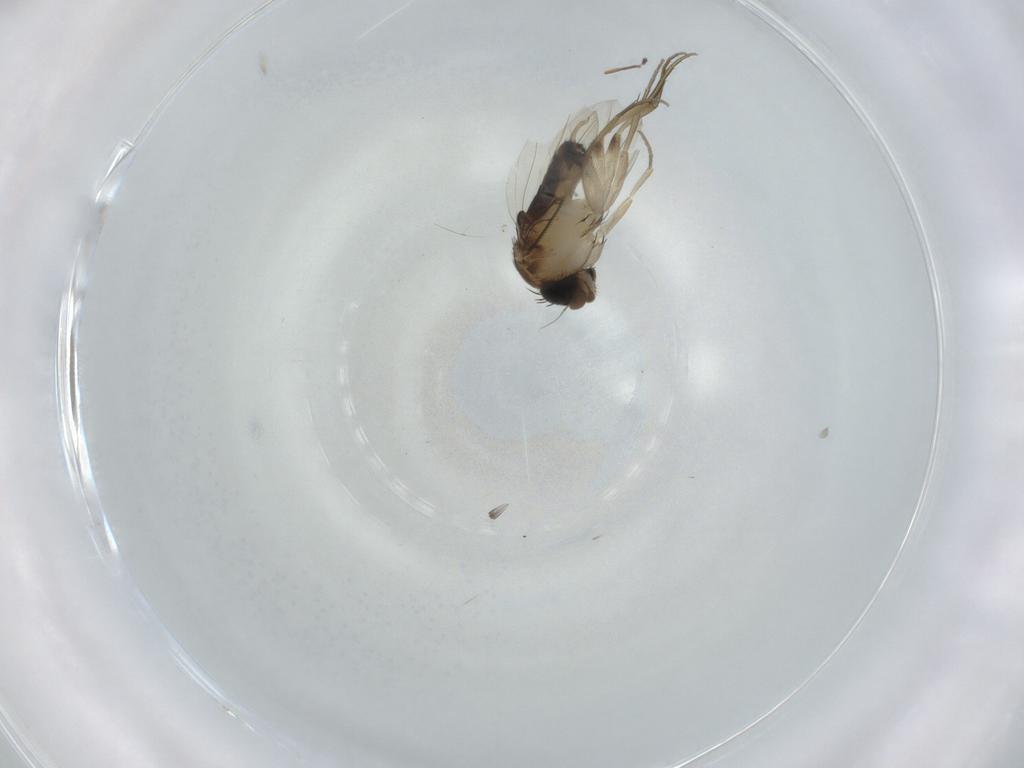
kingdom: Animalia
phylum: Arthropoda
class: Insecta
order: Diptera
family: Phoridae
